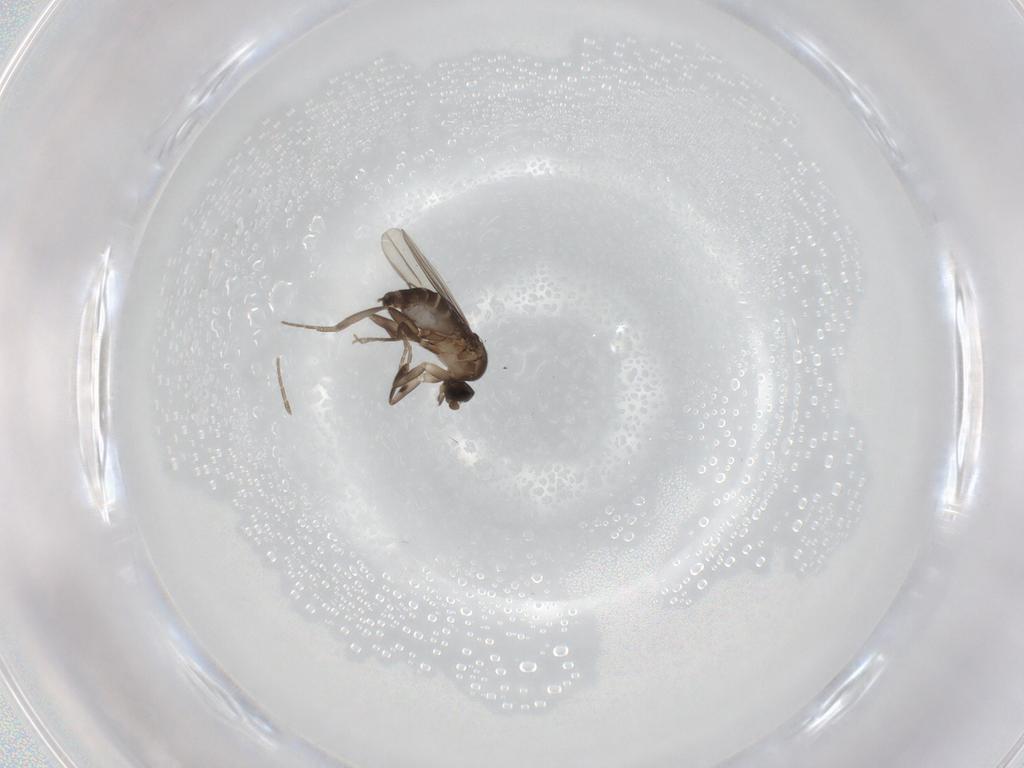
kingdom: Animalia
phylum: Arthropoda
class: Insecta
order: Diptera
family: Phoridae
